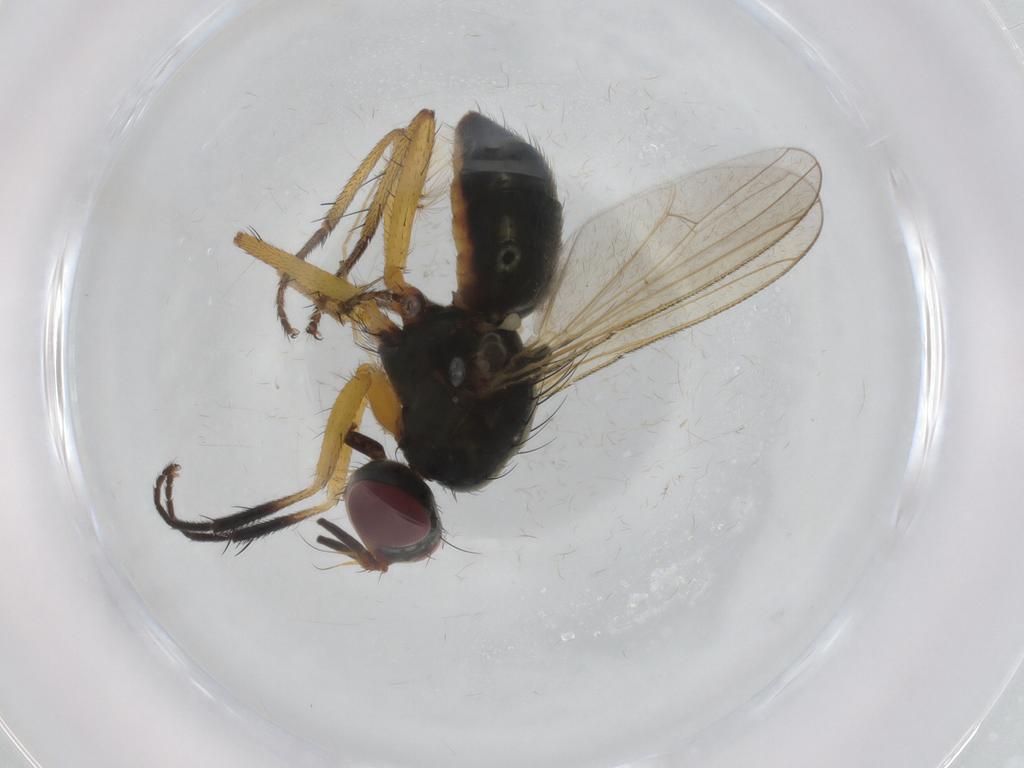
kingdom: Animalia
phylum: Arthropoda
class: Insecta
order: Diptera
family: Muscidae
